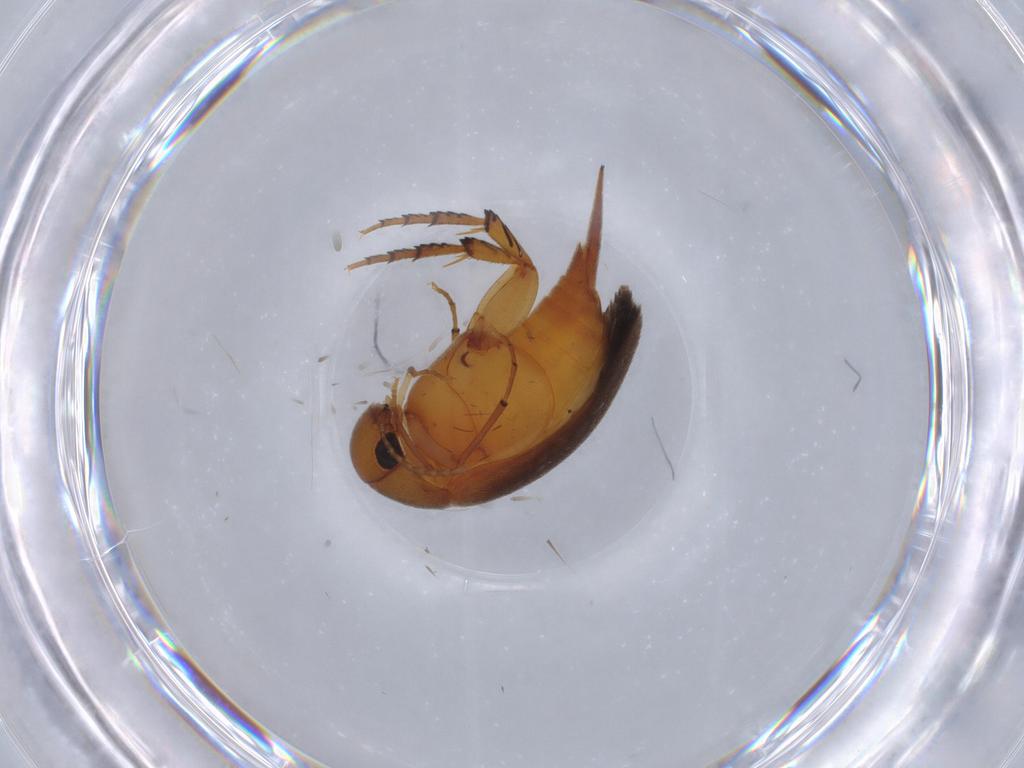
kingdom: Animalia
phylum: Arthropoda
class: Insecta
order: Coleoptera
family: Mordellidae
